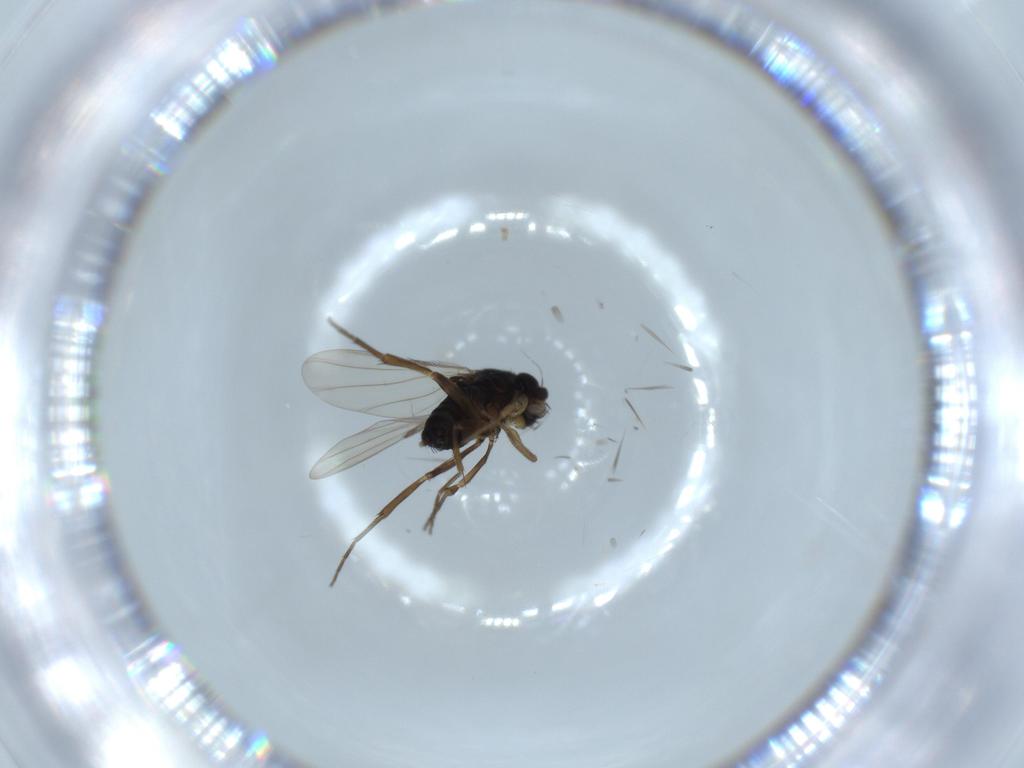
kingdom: Animalia
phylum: Arthropoda
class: Insecta
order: Diptera
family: Phoridae
